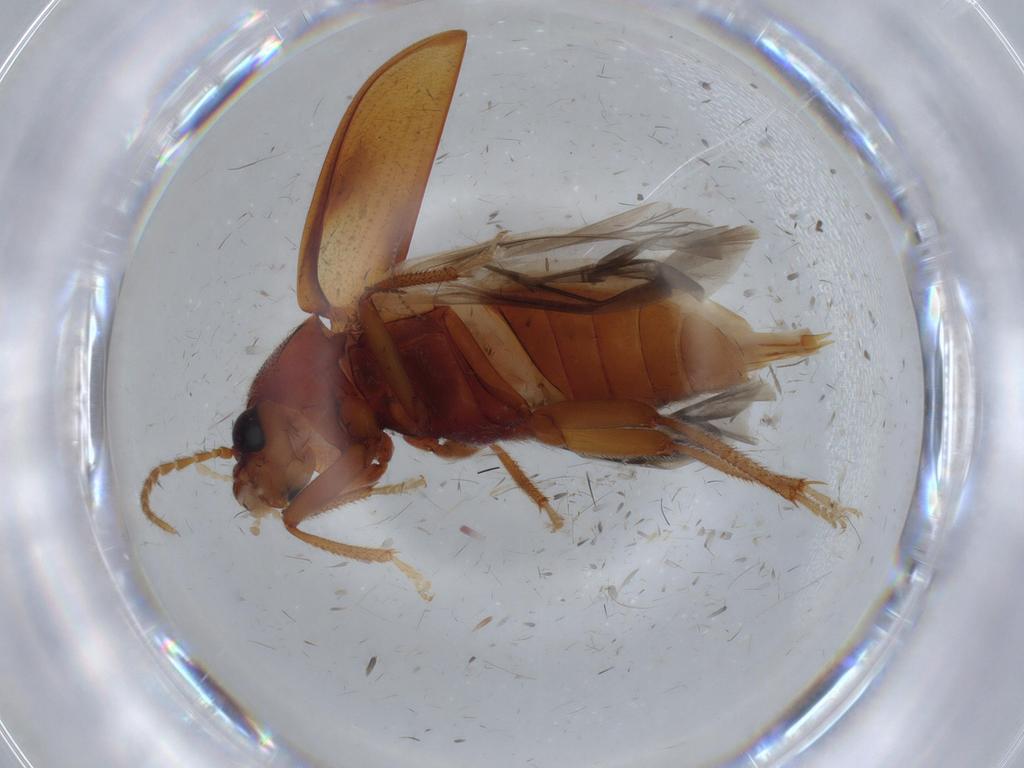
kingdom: Animalia
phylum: Arthropoda
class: Insecta
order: Coleoptera
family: Ptilodactylidae
